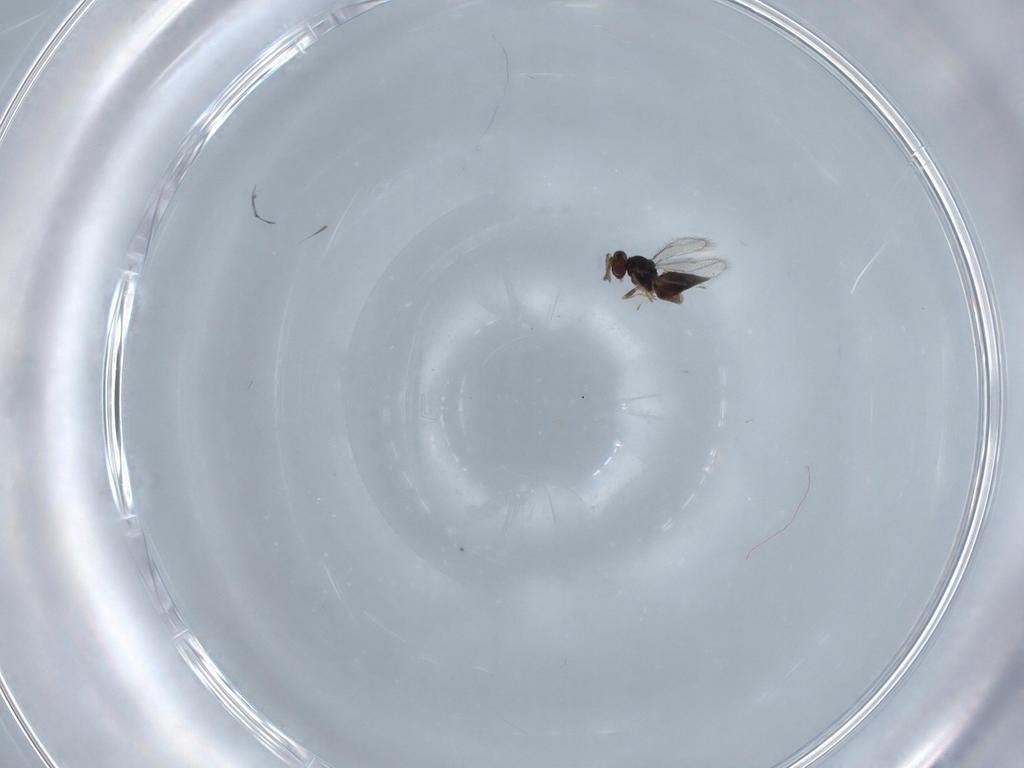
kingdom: Animalia
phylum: Arthropoda
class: Insecta
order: Hymenoptera
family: Eulophidae
